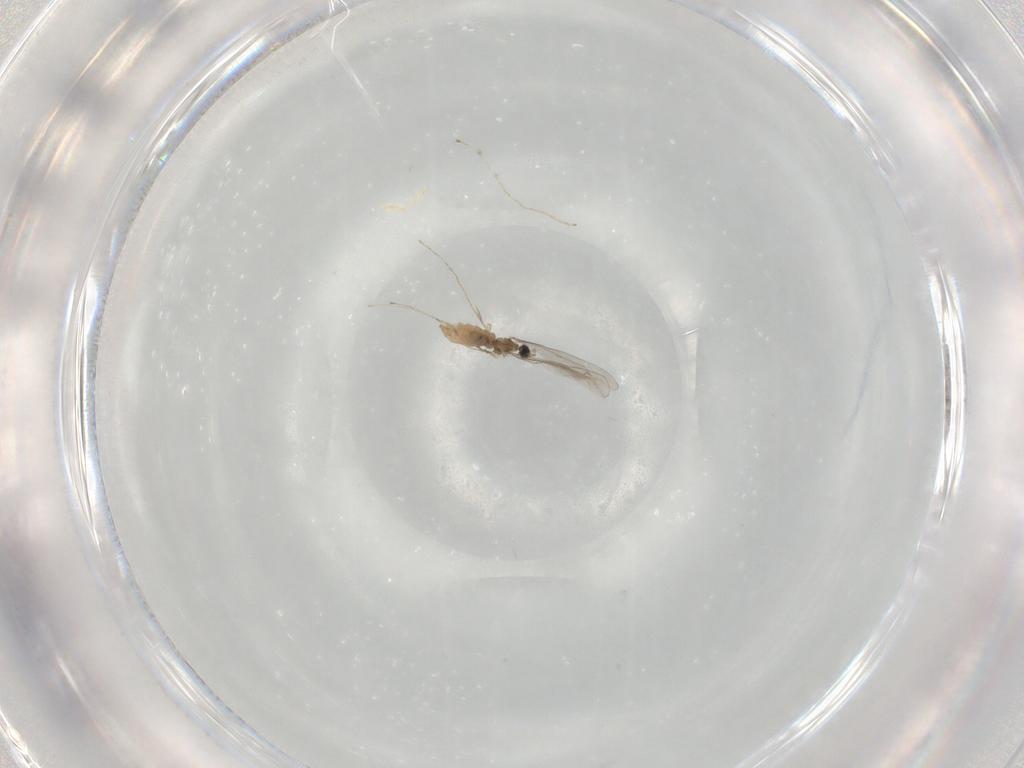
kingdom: Animalia
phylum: Arthropoda
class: Insecta
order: Diptera
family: Cecidomyiidae
